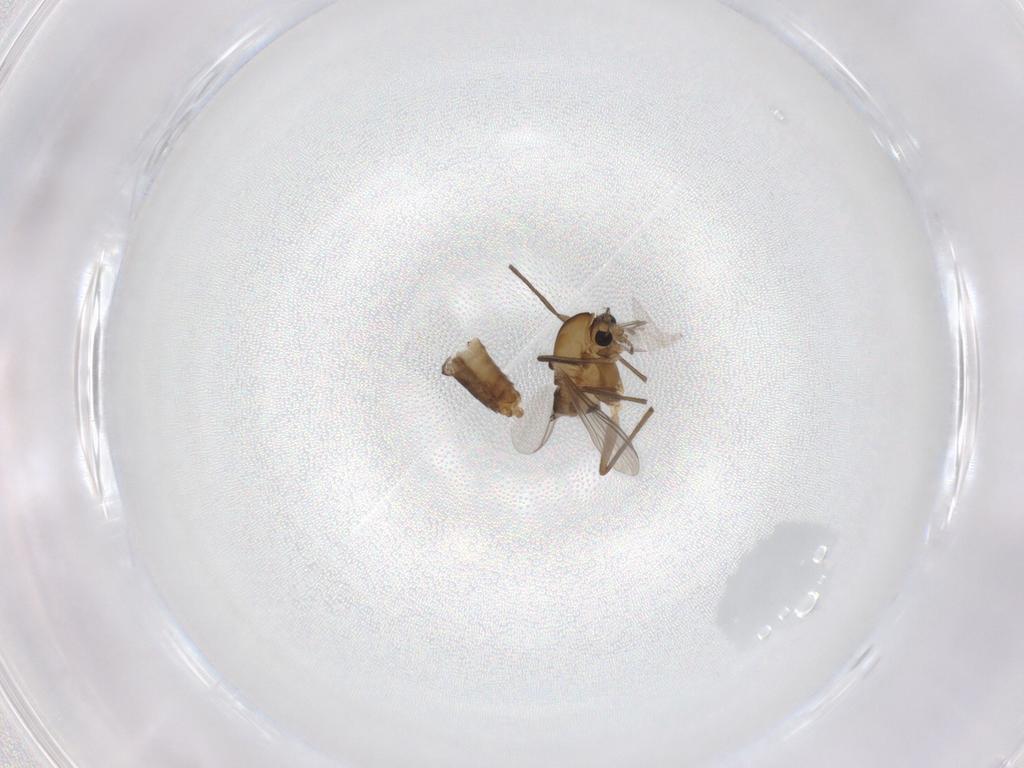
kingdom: Animalia
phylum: Arthropoda
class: Insecta
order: Diptera
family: Chironomidae
